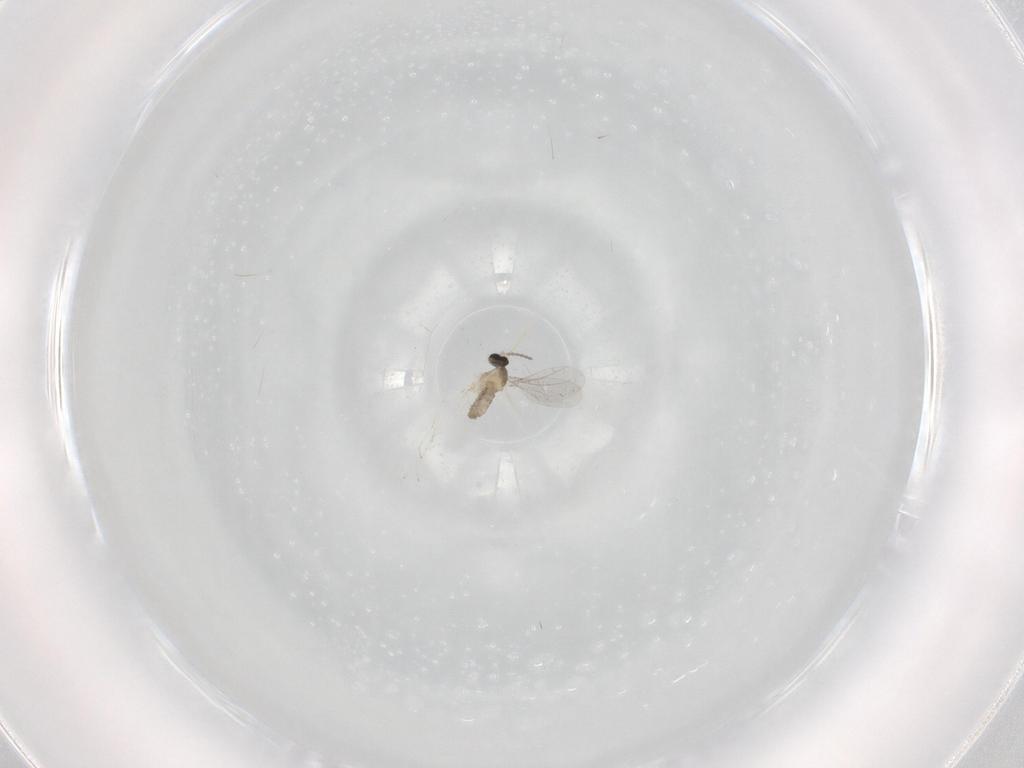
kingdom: Animalia
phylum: Arthropoda
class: Insecta
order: Diptera
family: Cecidomyiidae
